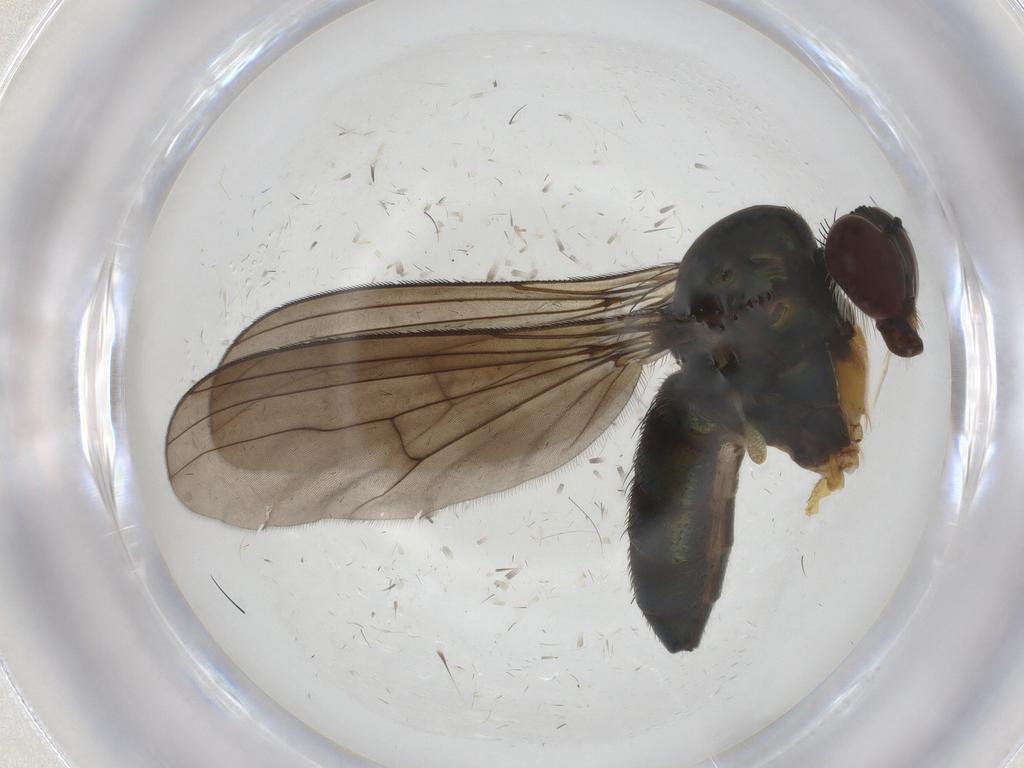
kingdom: Animalia
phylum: Arthropoda
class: Insecta
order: Diptera
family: Dolichopodidae
